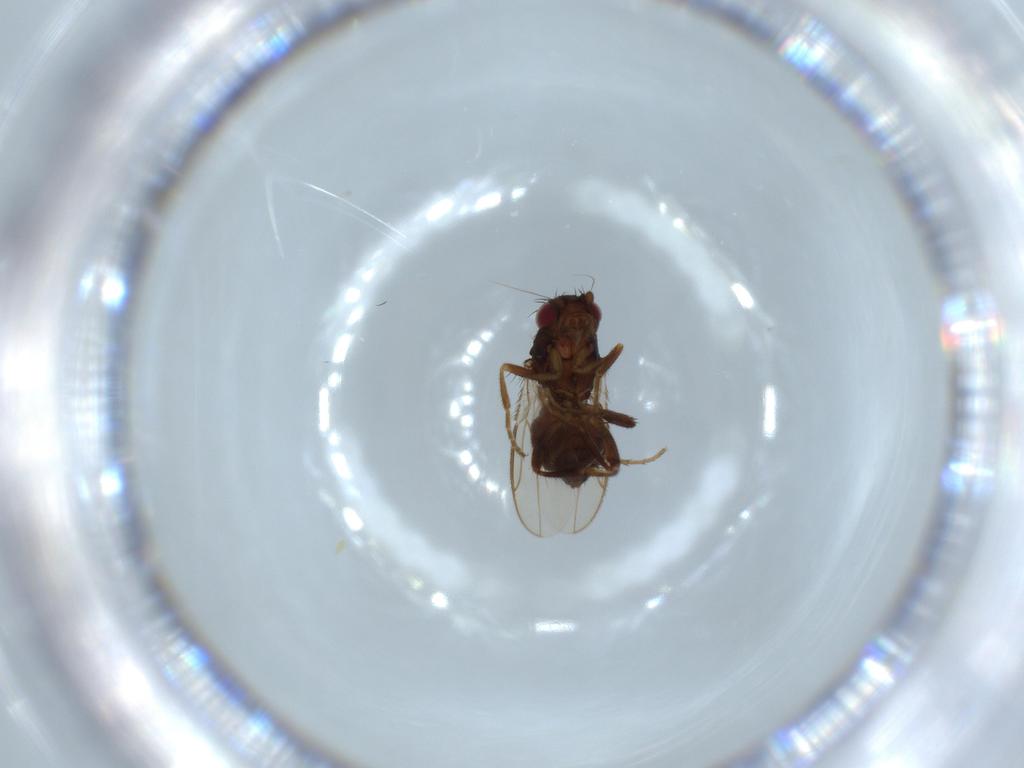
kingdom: Animalia
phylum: Arthropoda
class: Insecta
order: Diptera
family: Sphaeroceridae
